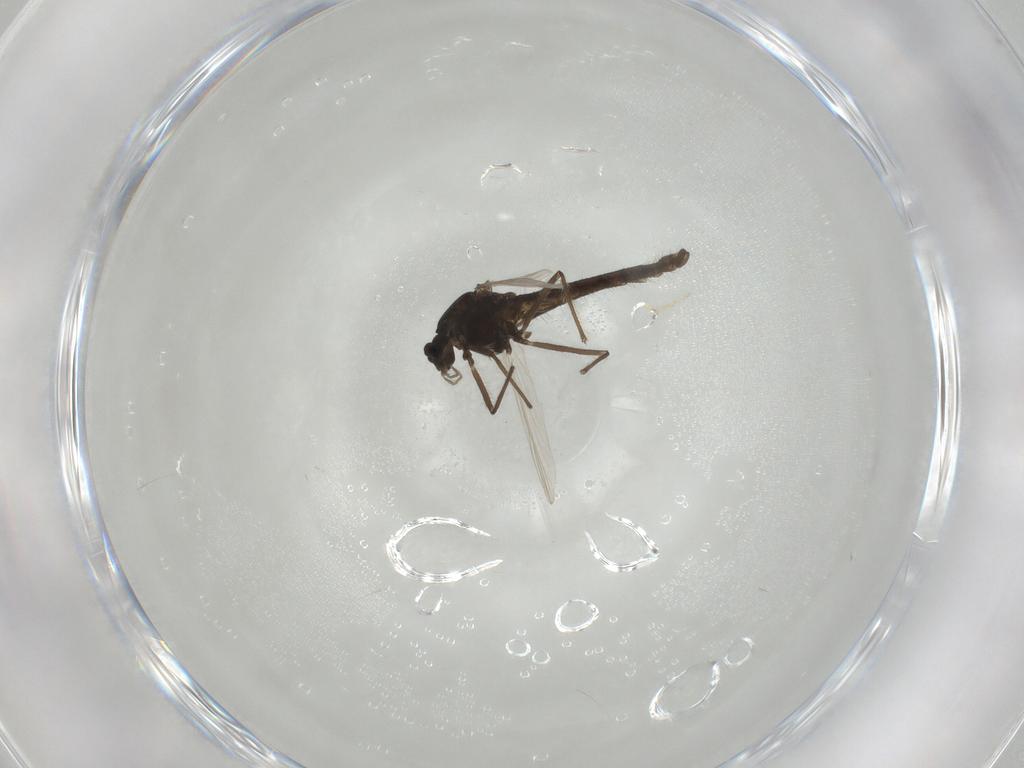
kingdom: Animalia
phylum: Arthropoda
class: Insecta
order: Diptera
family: Chironomidae
